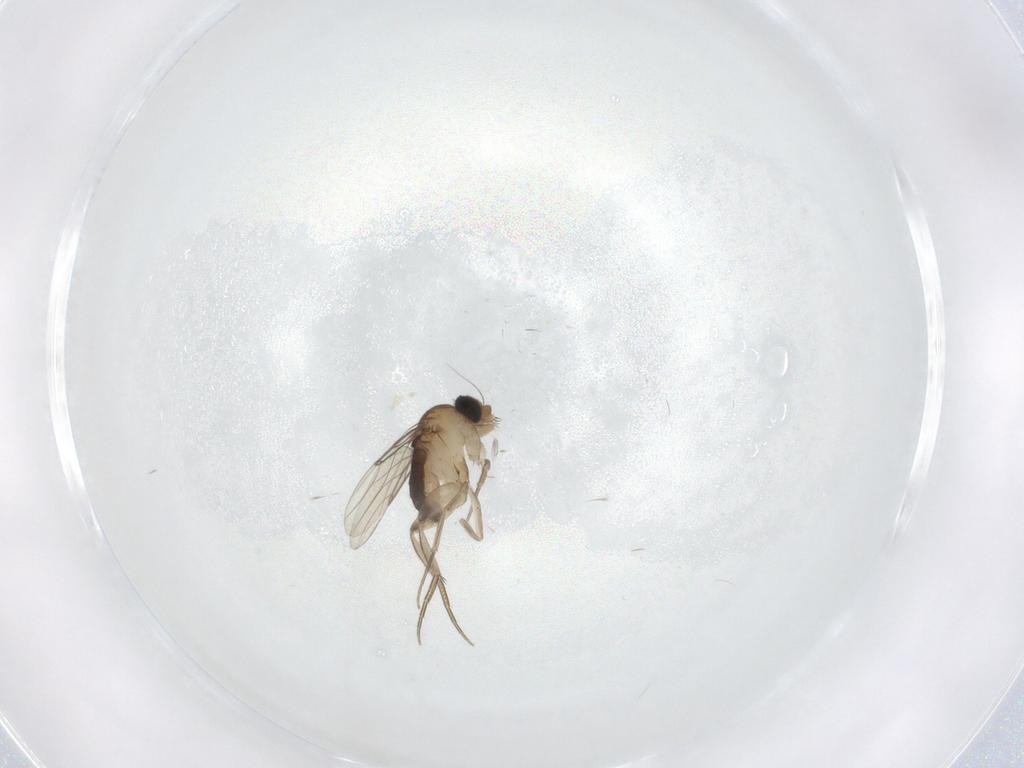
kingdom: Animalia
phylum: Arthropoda
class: Insecta
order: Diptera
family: Phoridae
